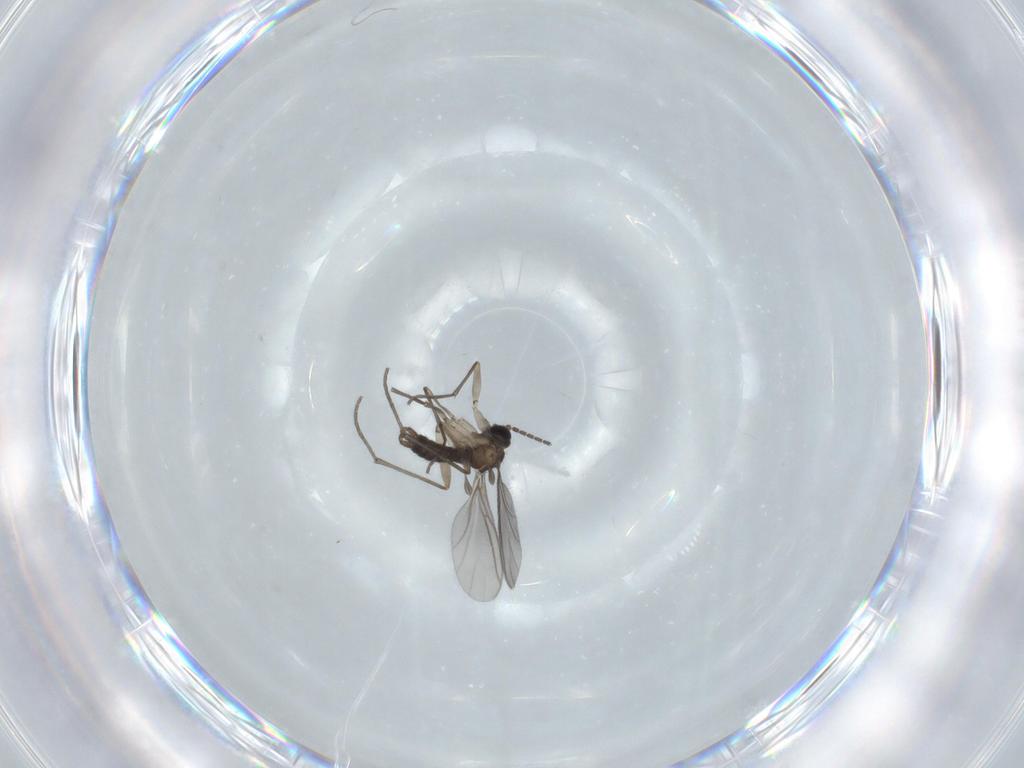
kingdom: Animalia
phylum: Arthropoda
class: Insecta
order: Diptera
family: Sciaridae
